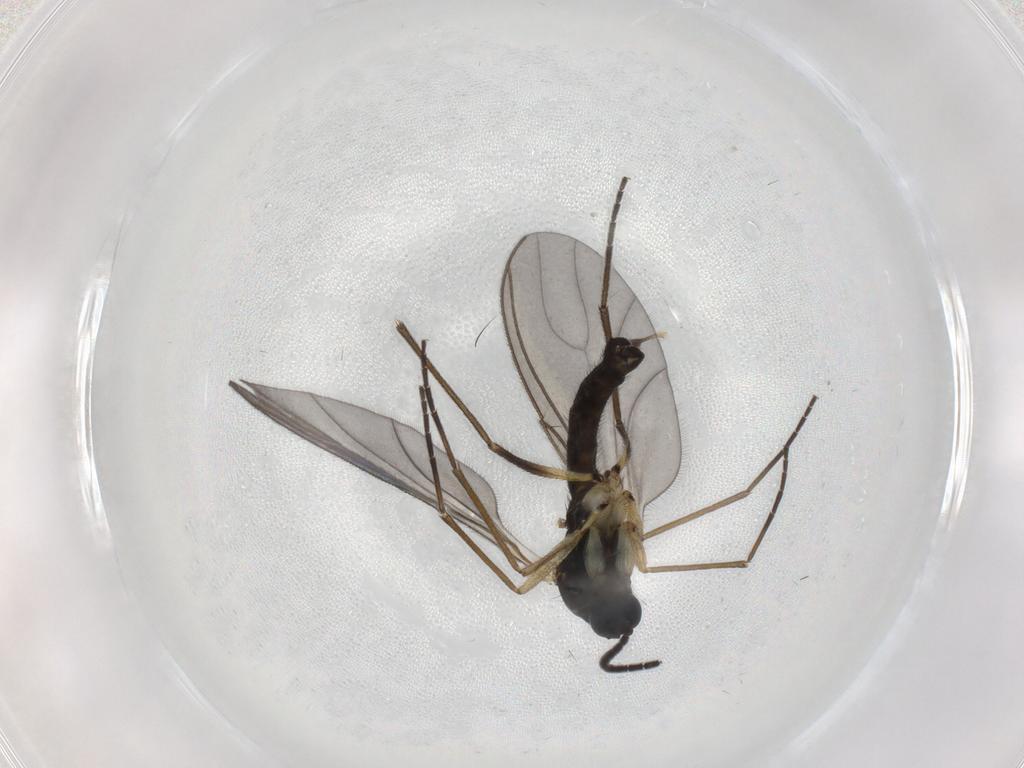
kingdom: Animalia
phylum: Arthropoda
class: Insecta
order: Diptera
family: Sciaridae
